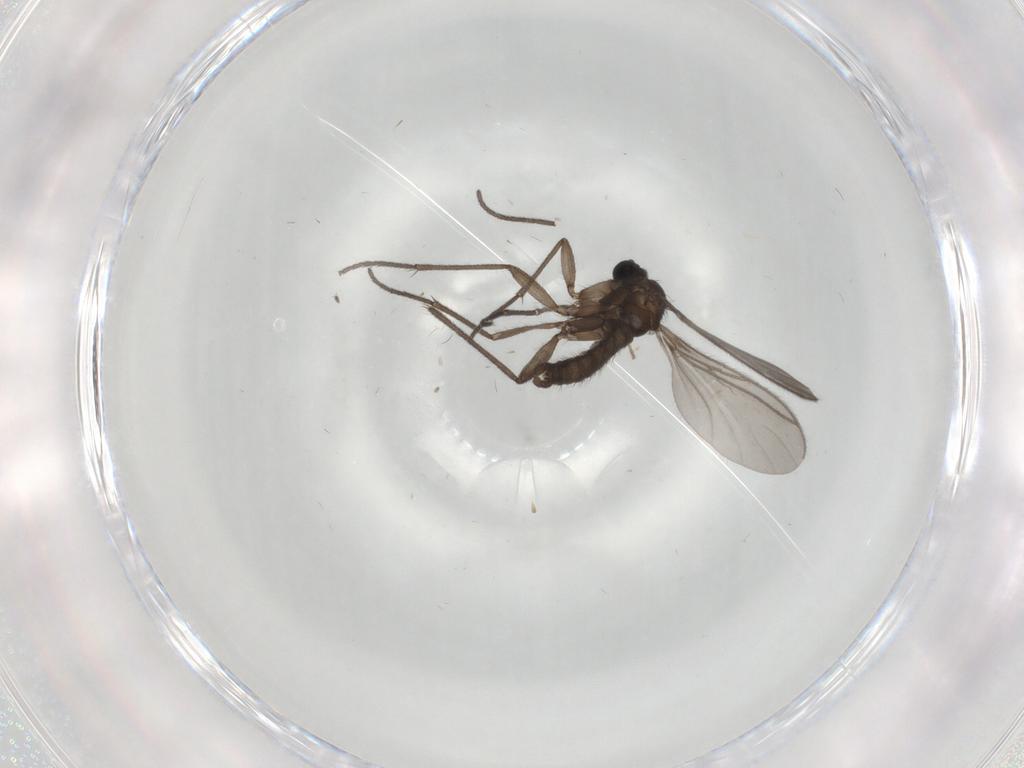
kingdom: Animalia
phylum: Arthropoda
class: Insecta
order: Diptera
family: Sciaridae
